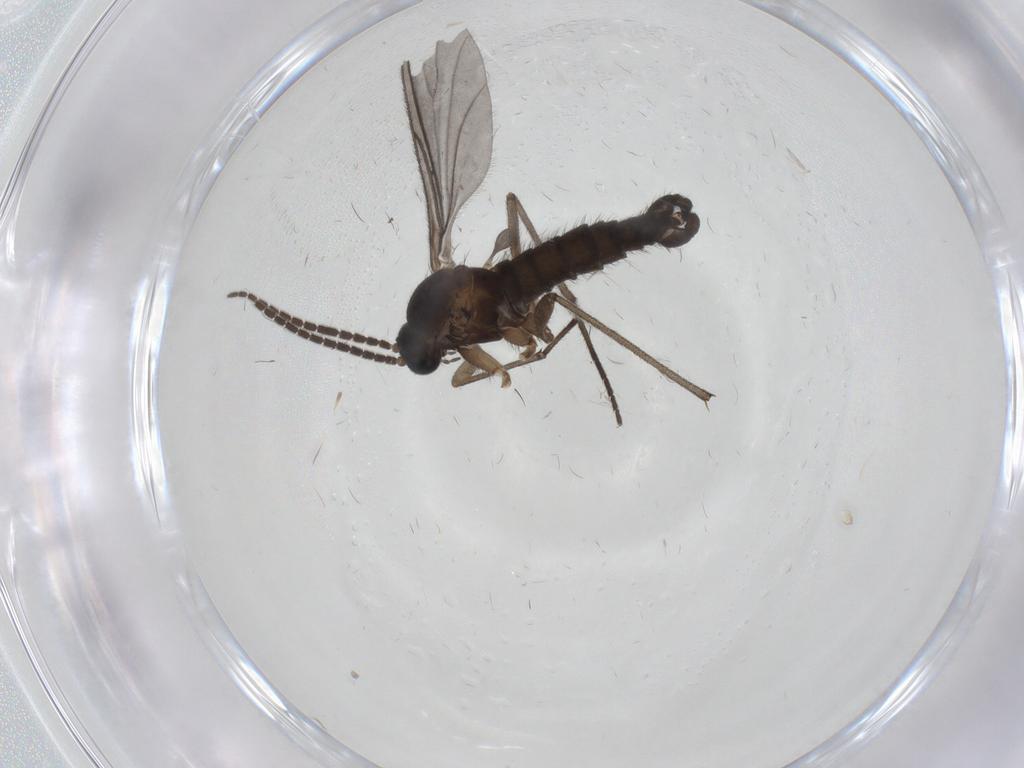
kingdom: Animalia
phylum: Arthropoda
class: Insecta
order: Diptera
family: Sciaridae
